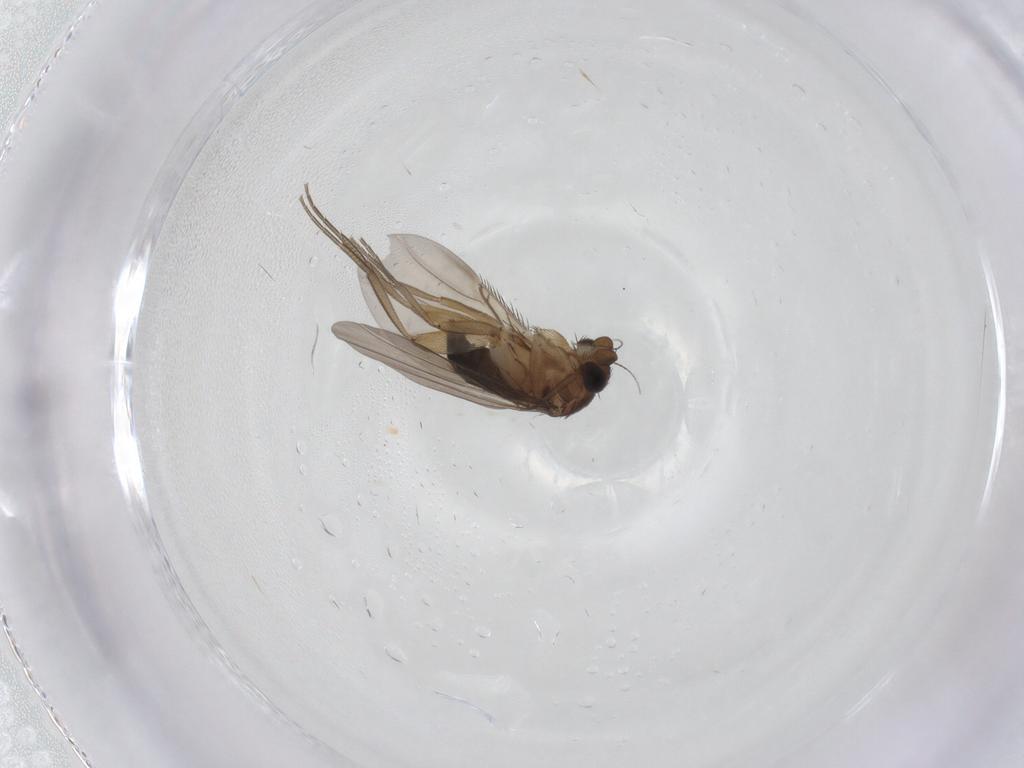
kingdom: Animalia
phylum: Arthropoda
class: Insecta
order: Diptera
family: Phoridae
